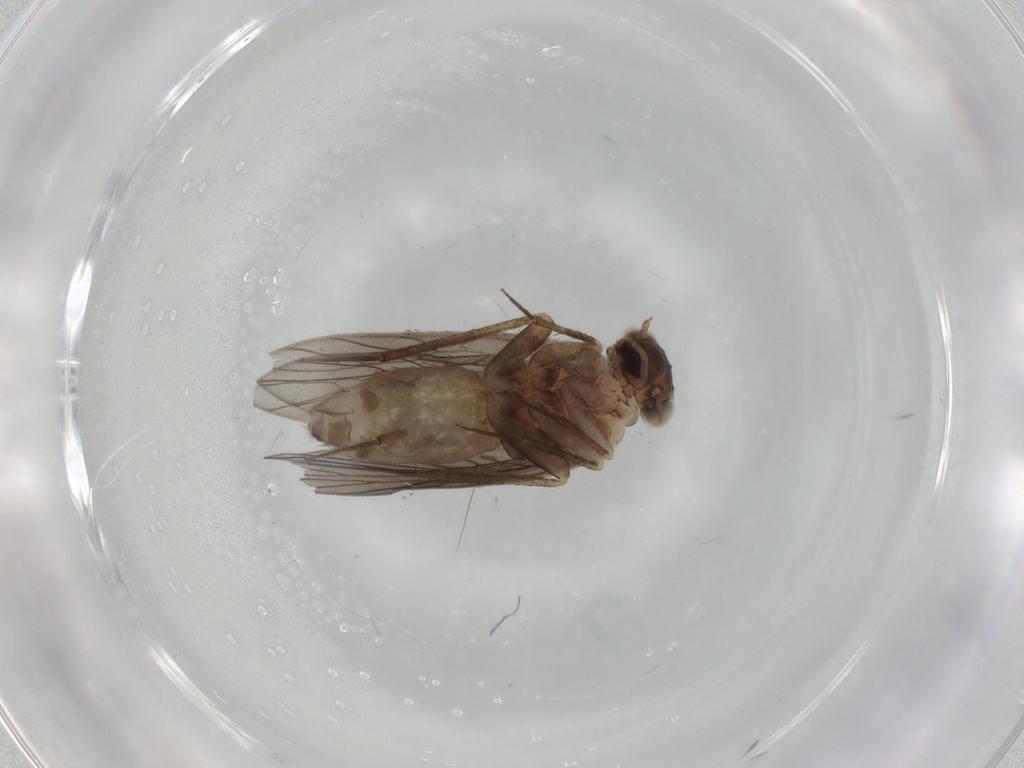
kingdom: Animalia
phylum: Arthropoda
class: Insecta
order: Psocodea
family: Lepidopsocidae
